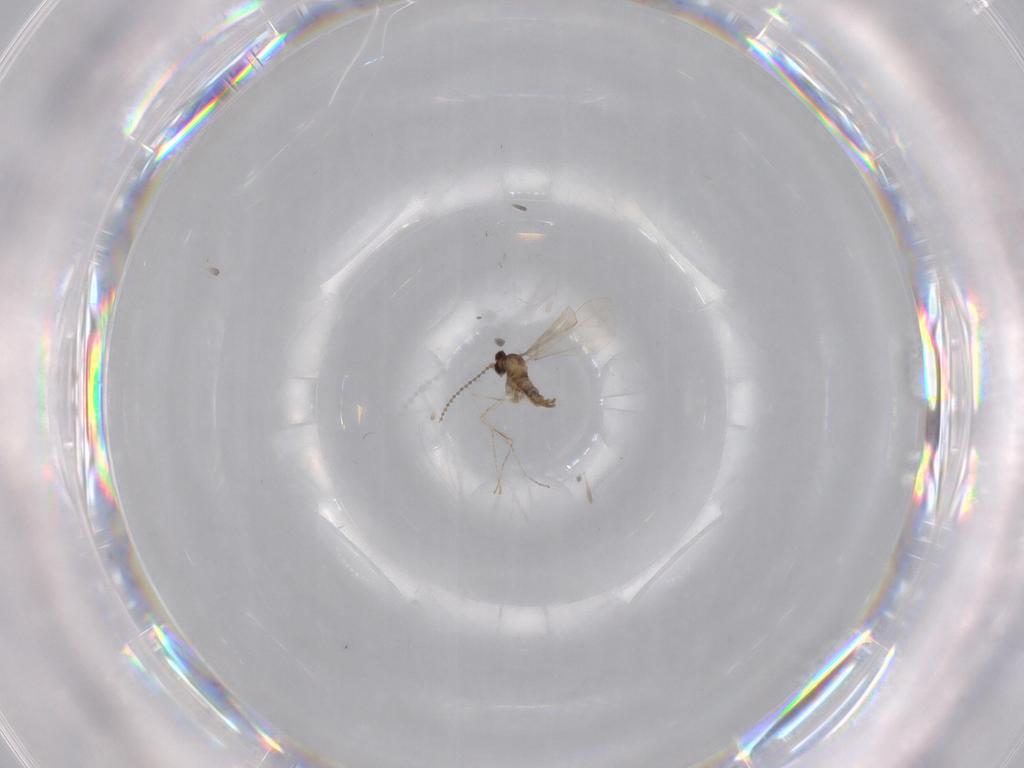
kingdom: Animalia
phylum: Arthropoda
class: Insecta
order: Diptera
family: Cecidomyiidae
